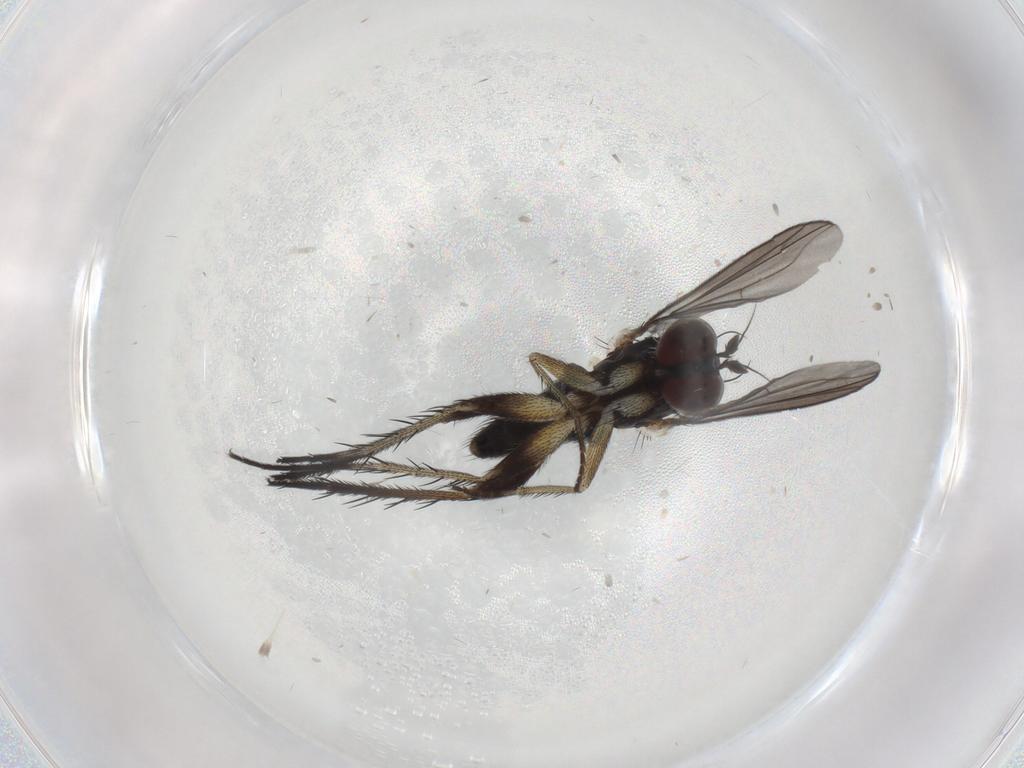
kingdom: Animalia
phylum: Arthropoda
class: Insecta
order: Diptera
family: Dolichopodidae
